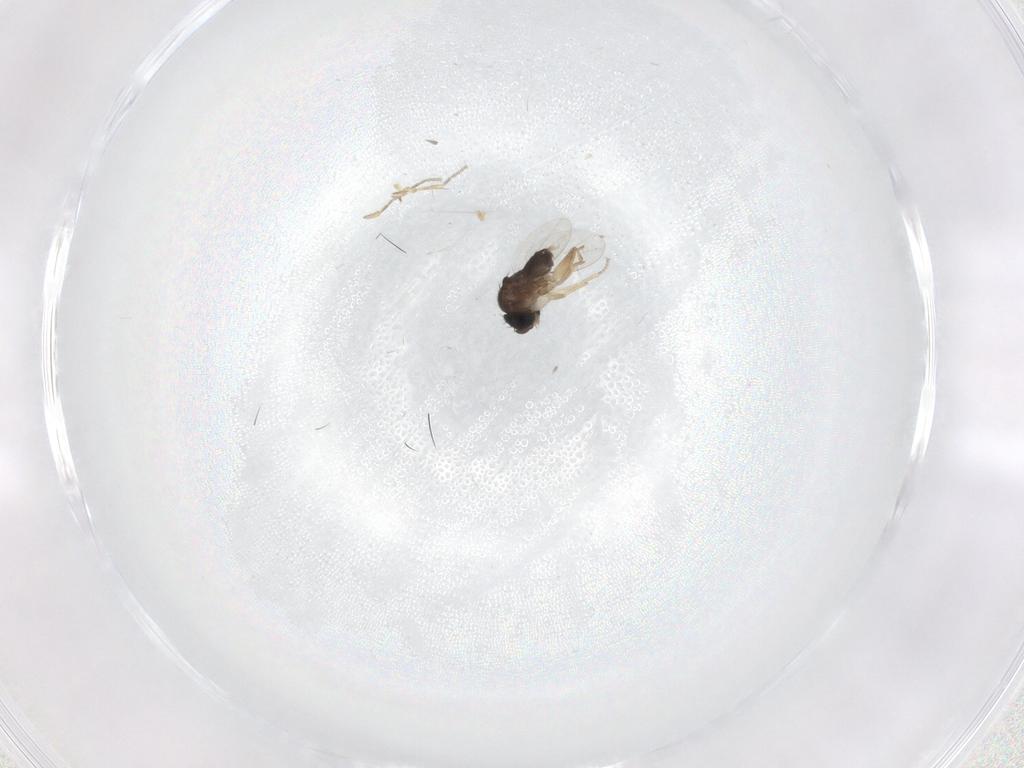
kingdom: Animalia
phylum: Arthropoda
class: Insecta
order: Diptera
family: Phoridae
